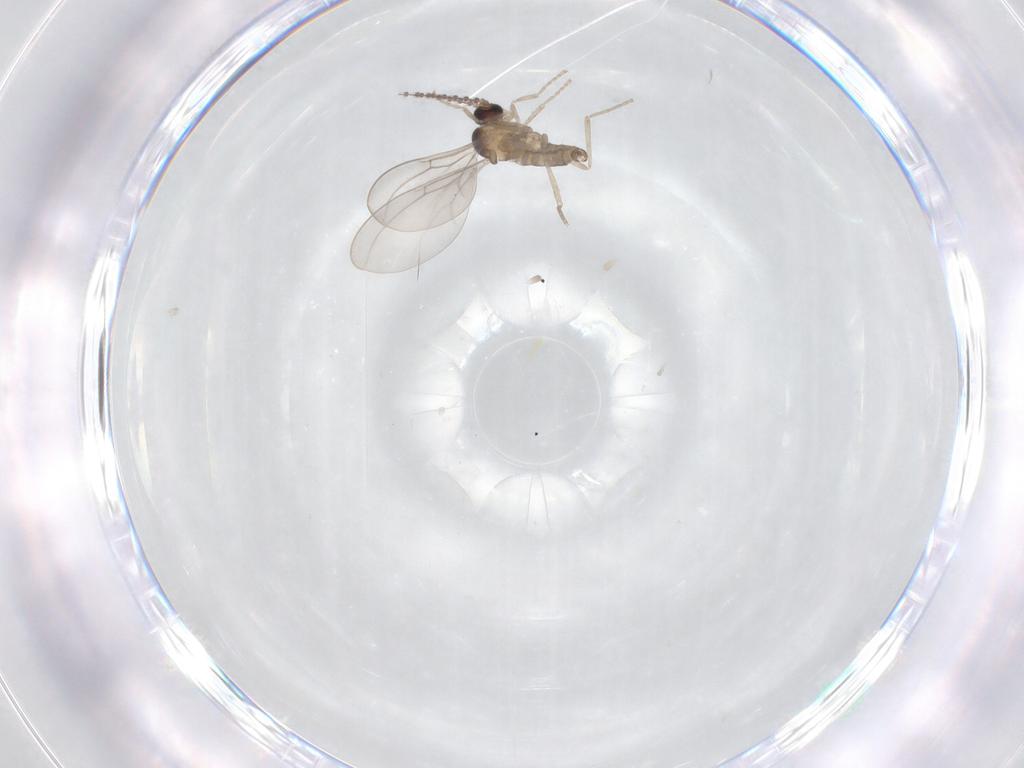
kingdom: Animalia
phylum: Arthropoda
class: Insecta
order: Diptera
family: Cecidomyiidae
